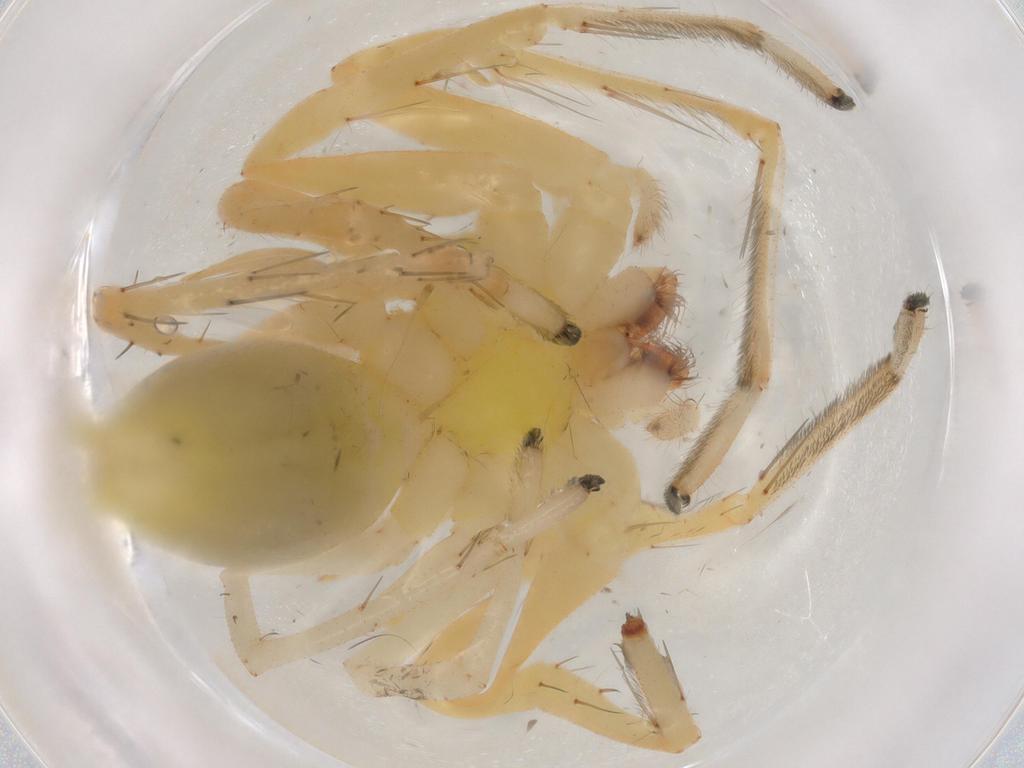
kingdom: Animalia
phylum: Arthropoda
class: Arachnida
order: Araneae
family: Anyphaenidae
